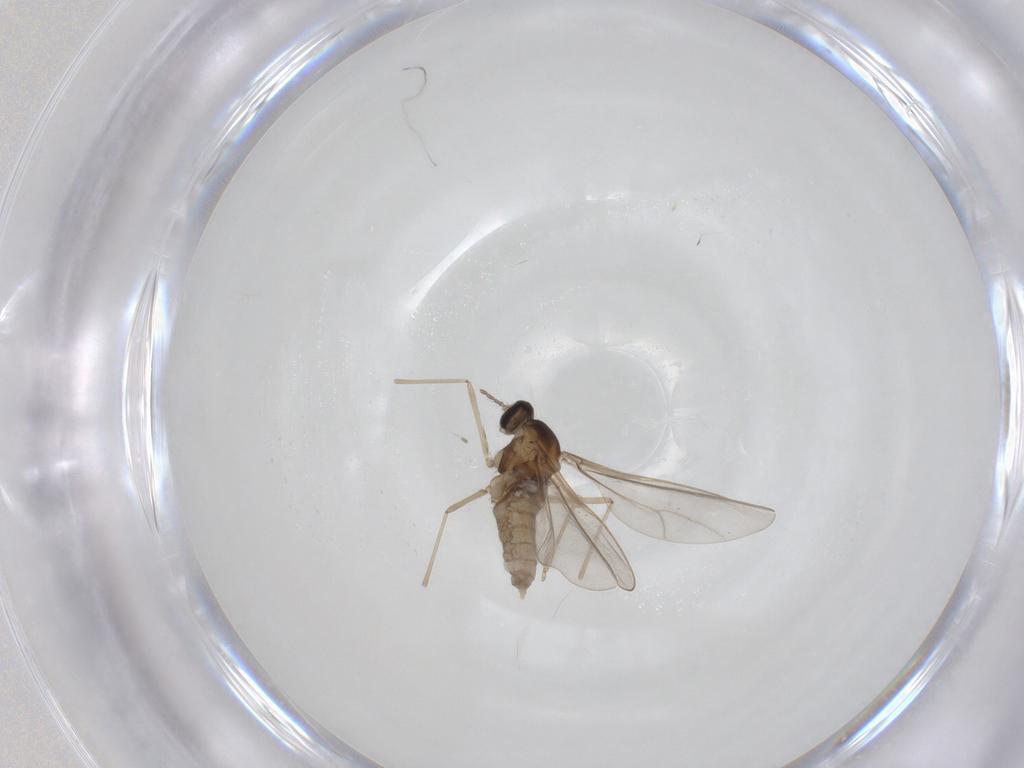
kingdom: Animalia
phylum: Arthropoda
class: Insecta
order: Diptera
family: Cecidomyiidae
